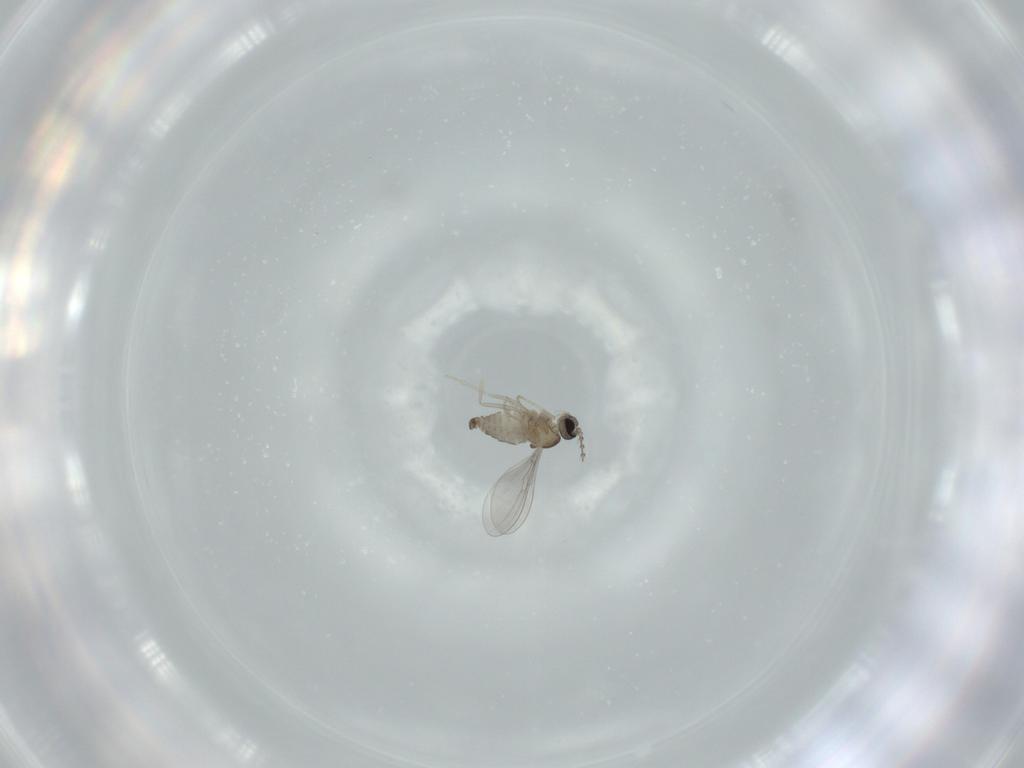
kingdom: Animalia
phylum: Arthropoda
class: Insecta
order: Diptera
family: Cecidomyiidae
